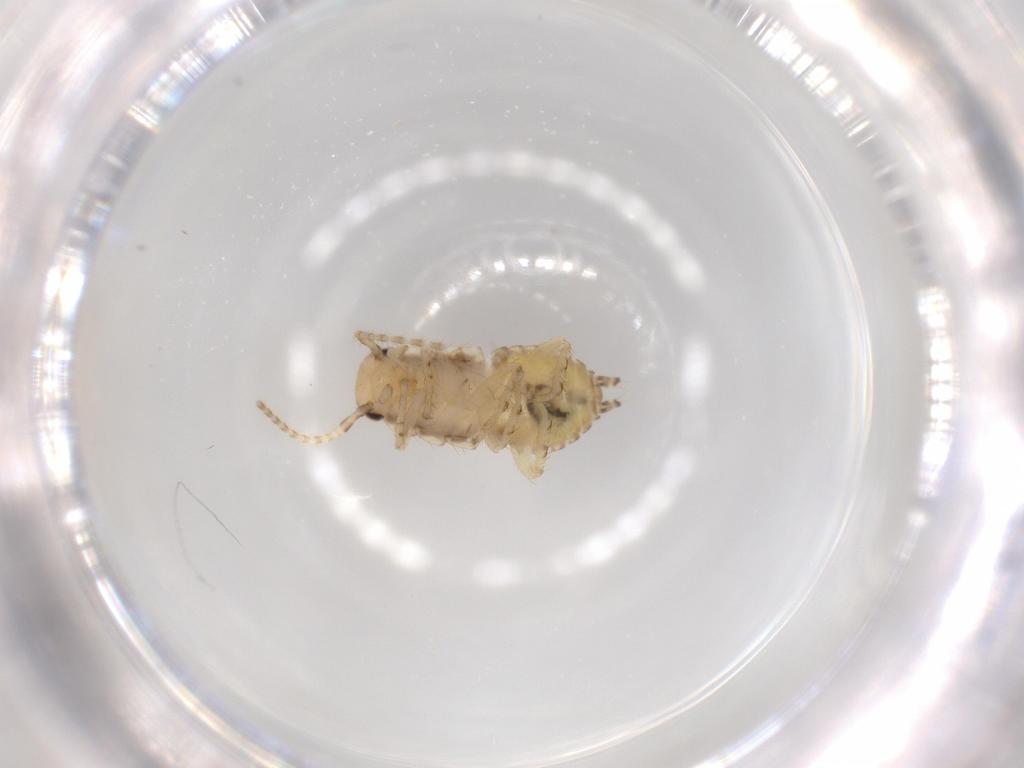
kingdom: Animalia
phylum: Arthropoda
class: Insecta
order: Blattodea
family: Ectobiidae
